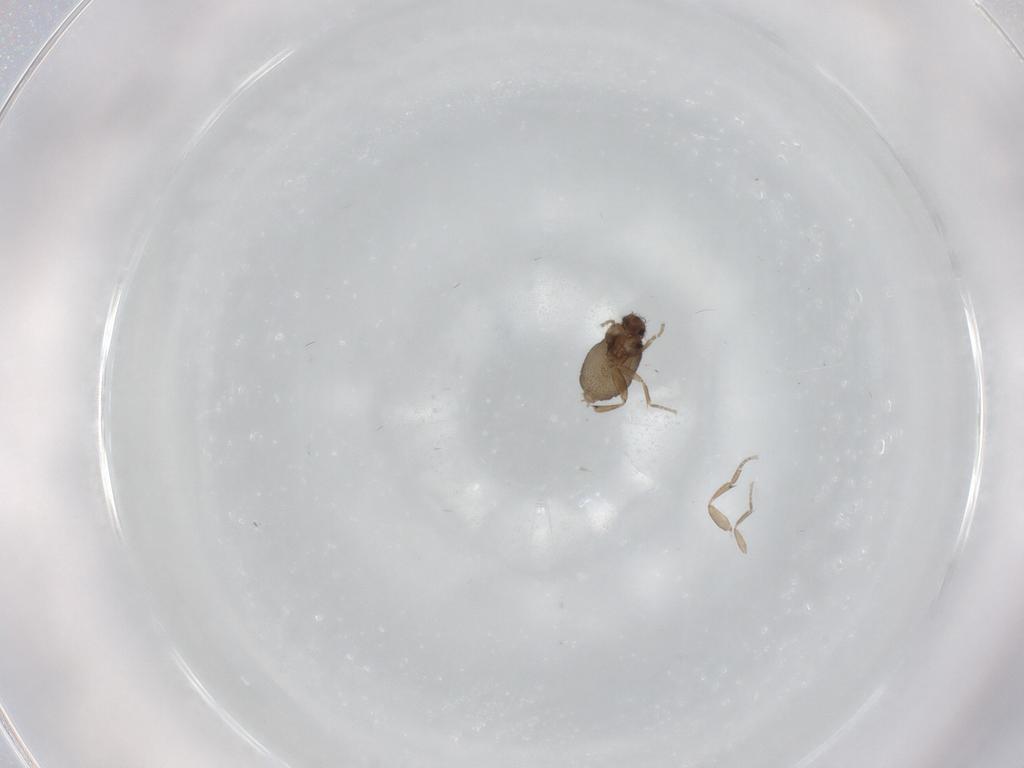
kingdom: Animalia
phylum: Arthropoda
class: Insecta
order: Diptera
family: Phoridae
